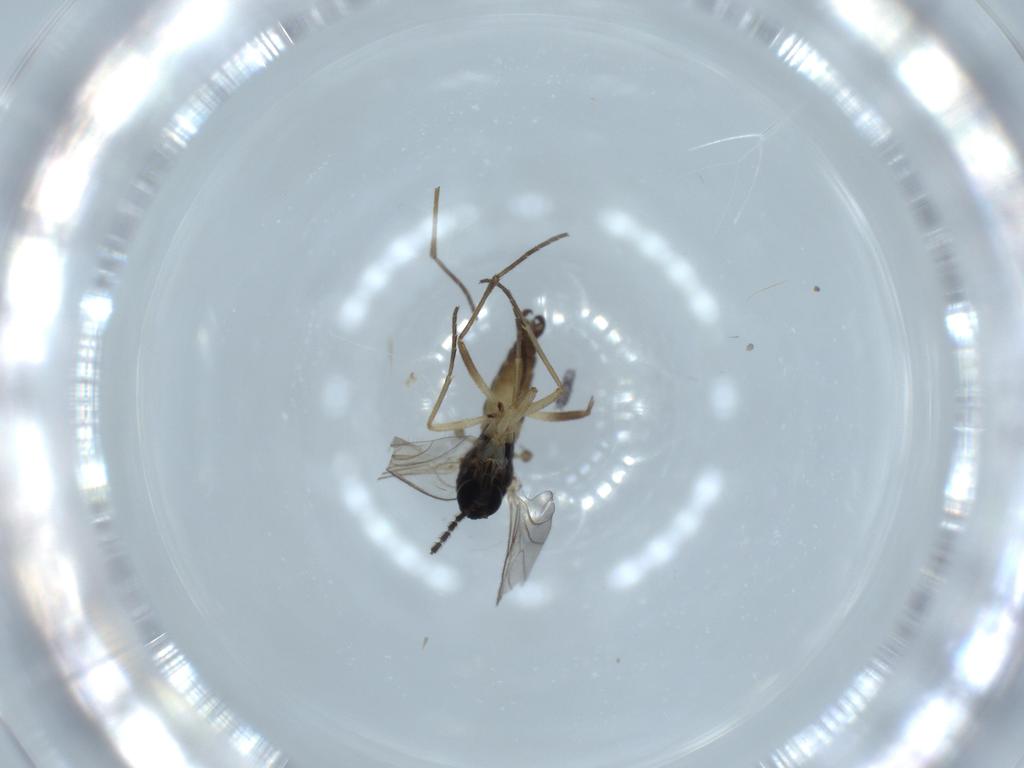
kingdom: Animalia
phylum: Arthropoda
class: Insecta
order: Diptera
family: Sciaridae
